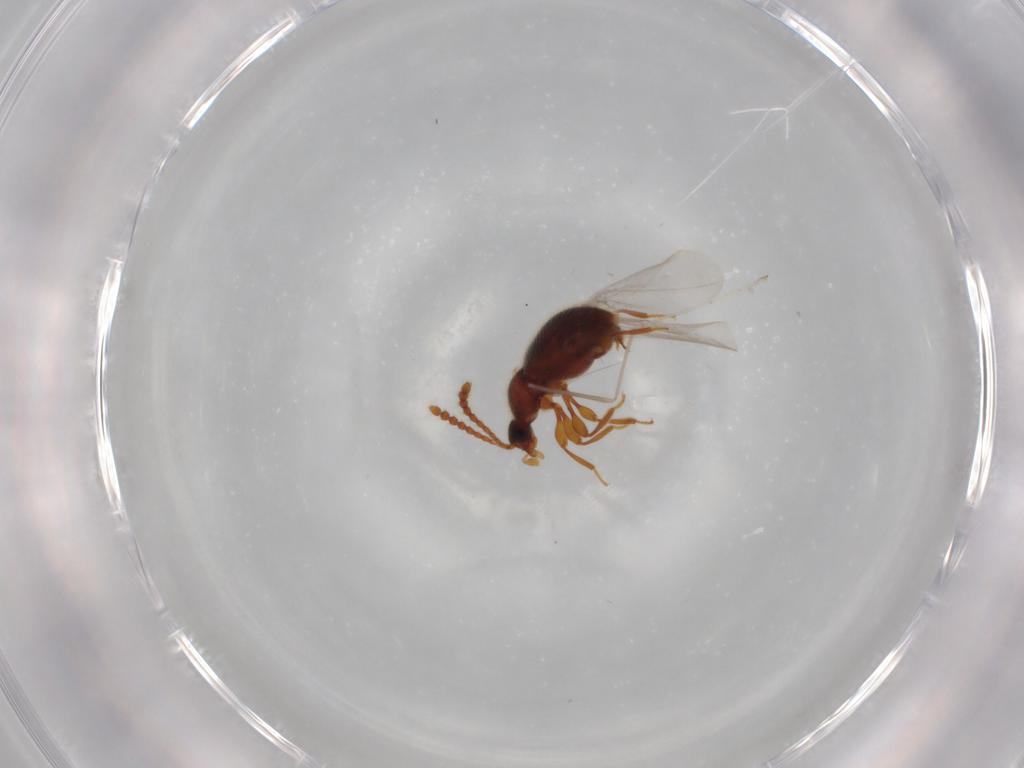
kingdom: Animalia
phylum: Arthropoda
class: Insecta
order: Coleoptera
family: Staphylinidae
